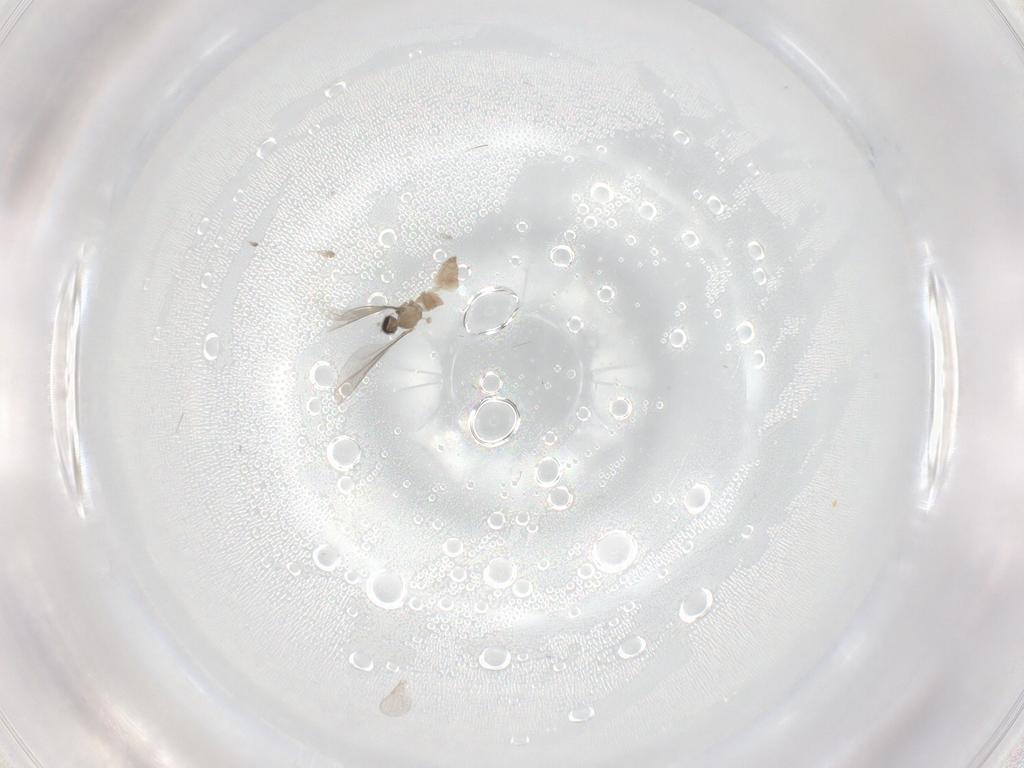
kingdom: Animalia
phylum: Arthropoda
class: Insecta
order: Diptera
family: Cecidomyiidae
